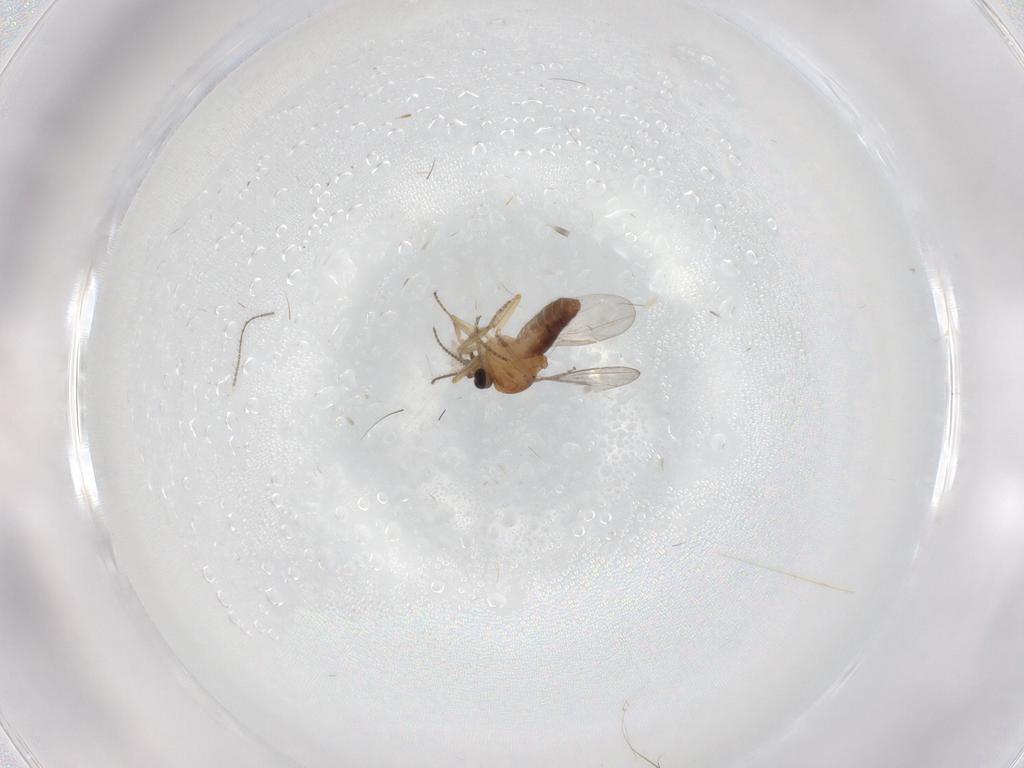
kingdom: Animalia
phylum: Arthropoda
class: Insecta
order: Diptera
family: Ceratopogonidae
